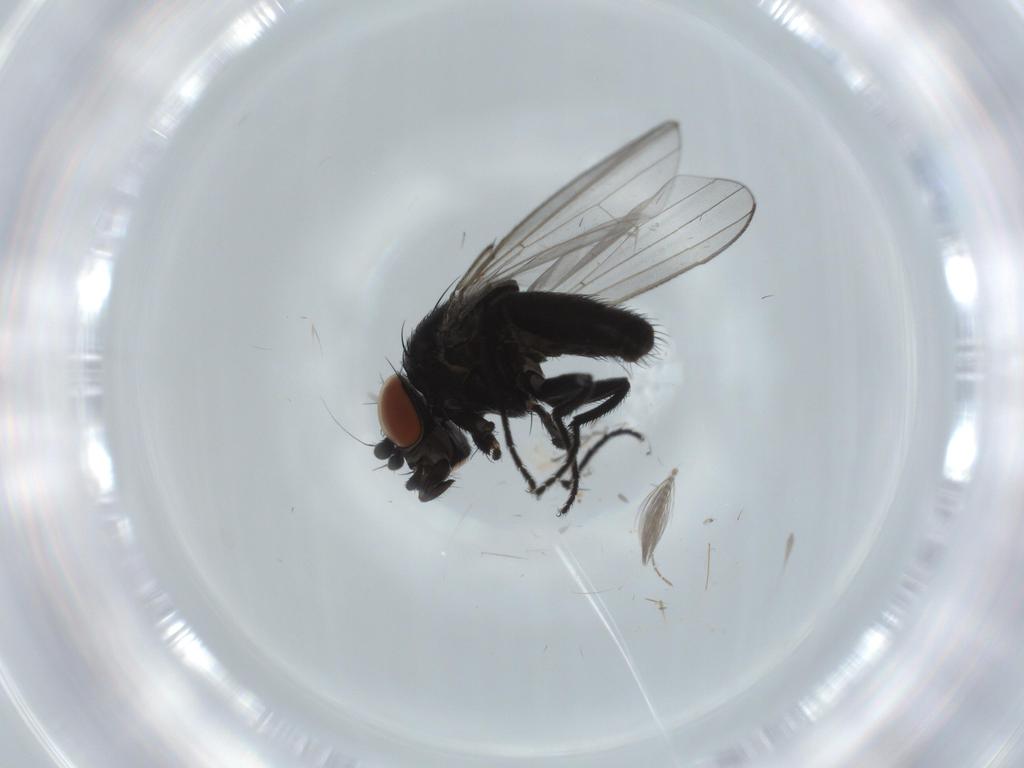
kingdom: Animalia
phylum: Arthropoda
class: Insecta
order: Diptera
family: Milichiidae
